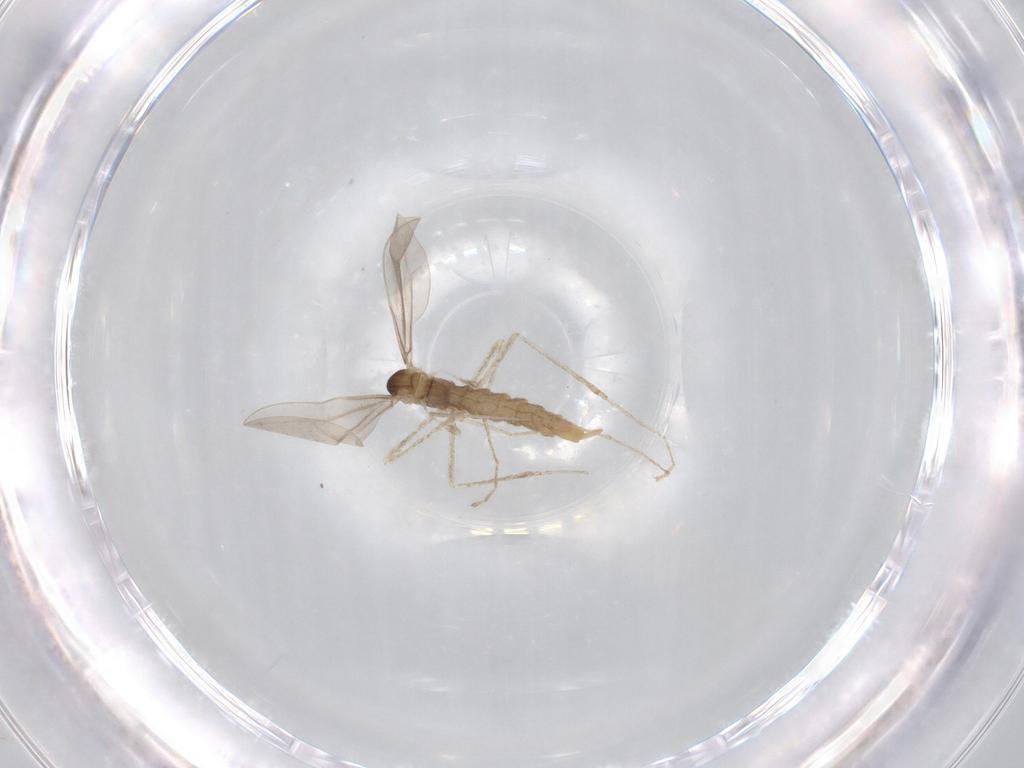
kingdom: Animalia
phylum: Arthropoda
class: Insecta
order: Diptera
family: Cecidomyiidae
